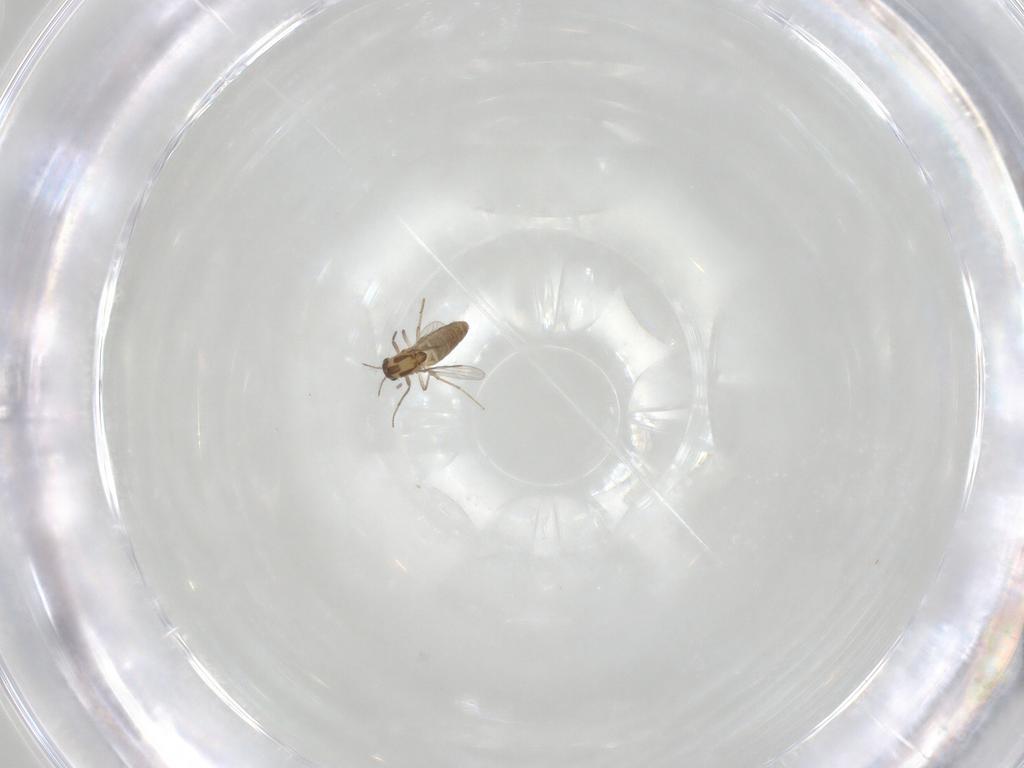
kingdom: Animalia
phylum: Arthropoda
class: Insecta
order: Diptera
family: Chironomidae
